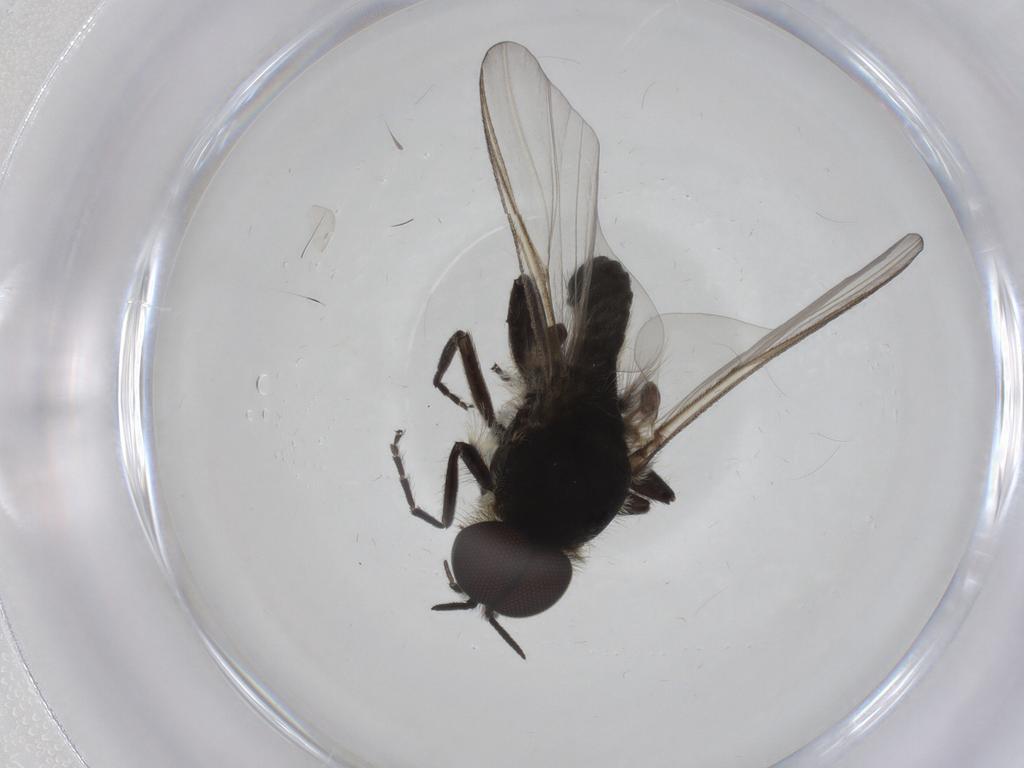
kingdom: Animalia
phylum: Arthropoda
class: Insecta
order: Diptera
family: Simuliidae
